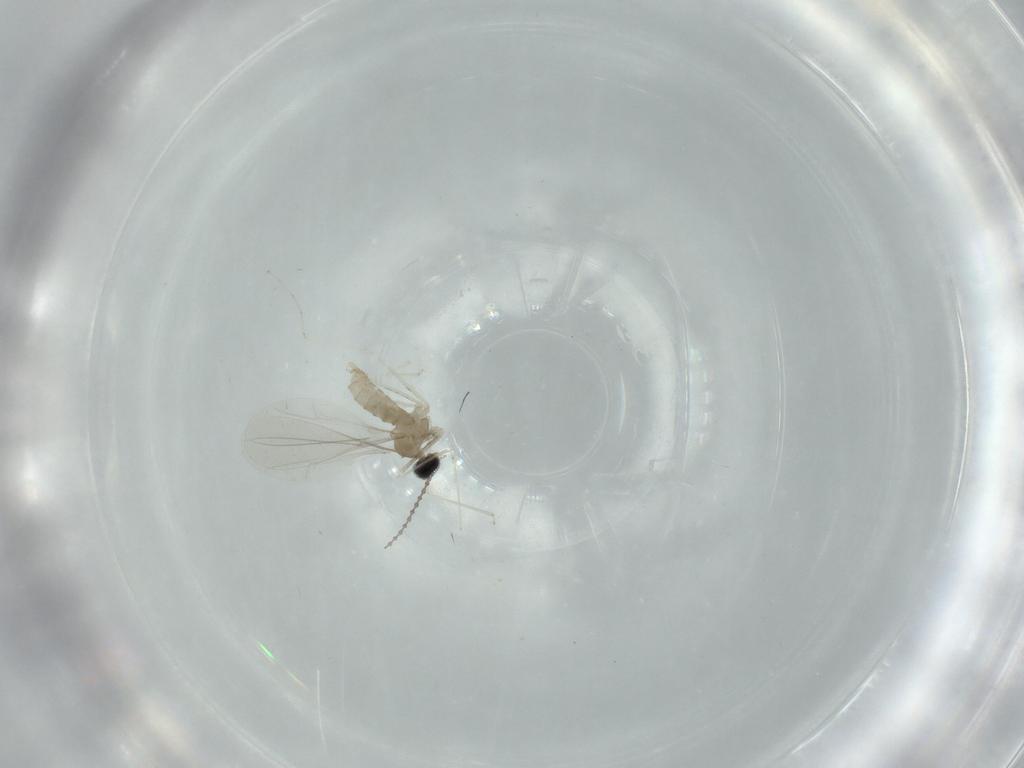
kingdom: Animalia
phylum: Arthropoda
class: Insecta
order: Diptera
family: Cecidomyiidae
